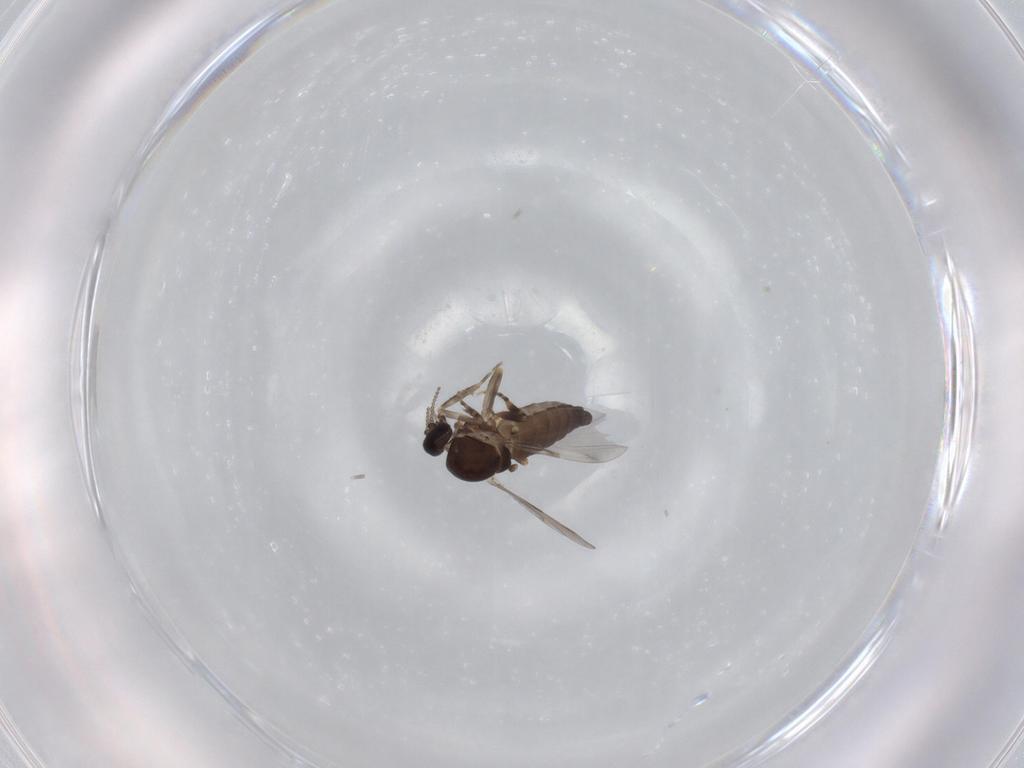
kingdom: Animalia
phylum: Arthropoda
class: Insecta
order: Diptera
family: Ceratopogonidae
